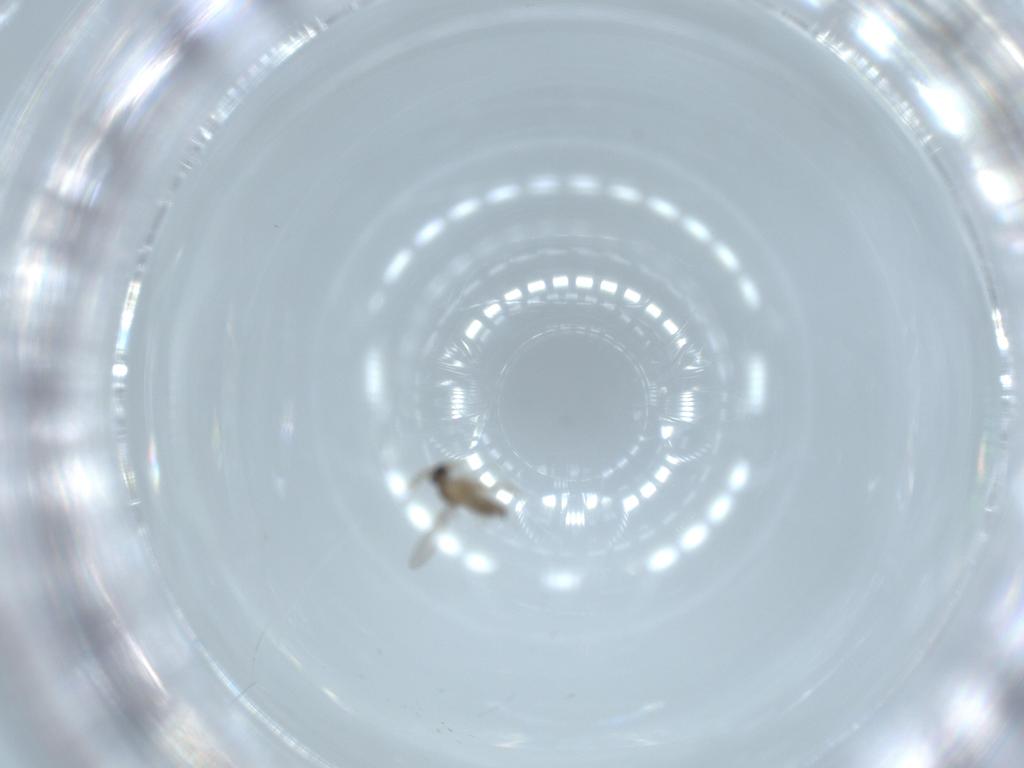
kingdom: Animalia
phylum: Arthropoda
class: Insecta
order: Diptera
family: Cecidomyiidae
